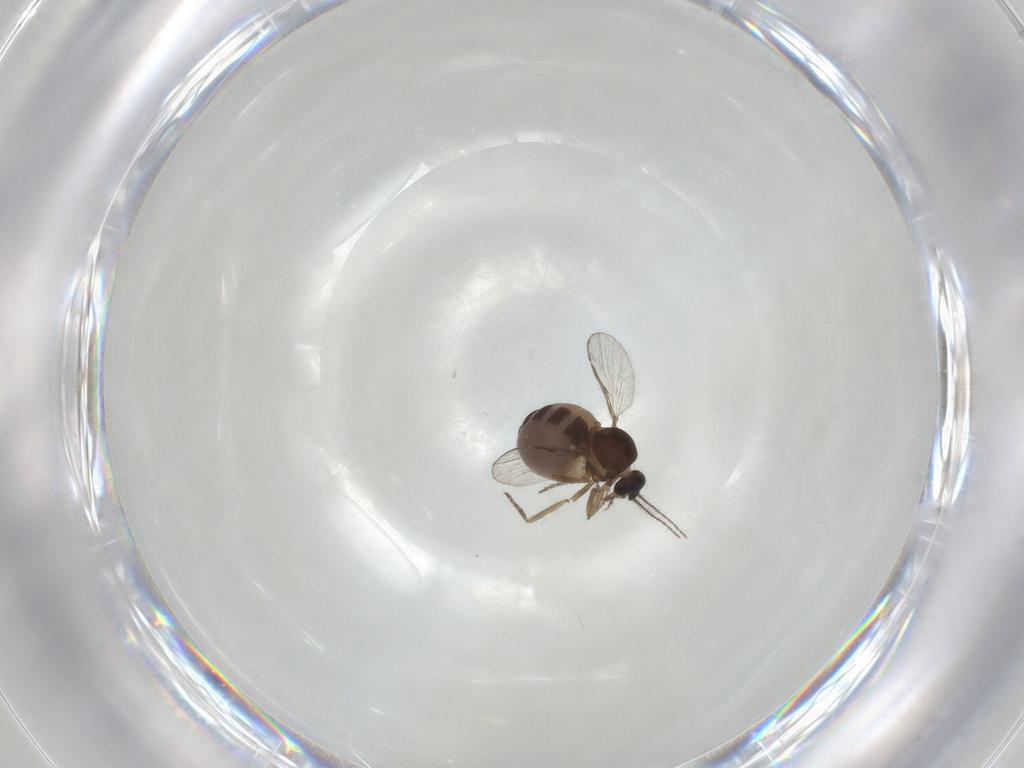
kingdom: Animalia
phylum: Arthropoda
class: Insecta
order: Diptera
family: Ceratopogonidae
